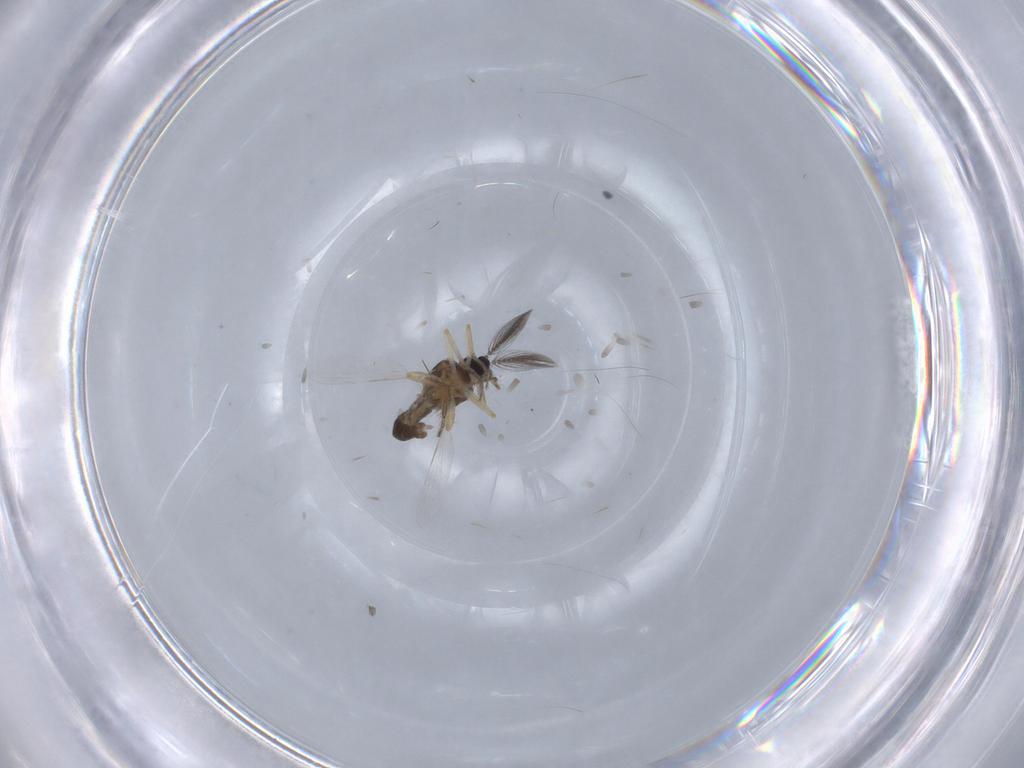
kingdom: Animalia
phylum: Arthropoda
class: Insecta
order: Diptera
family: Ceratopogonidae
